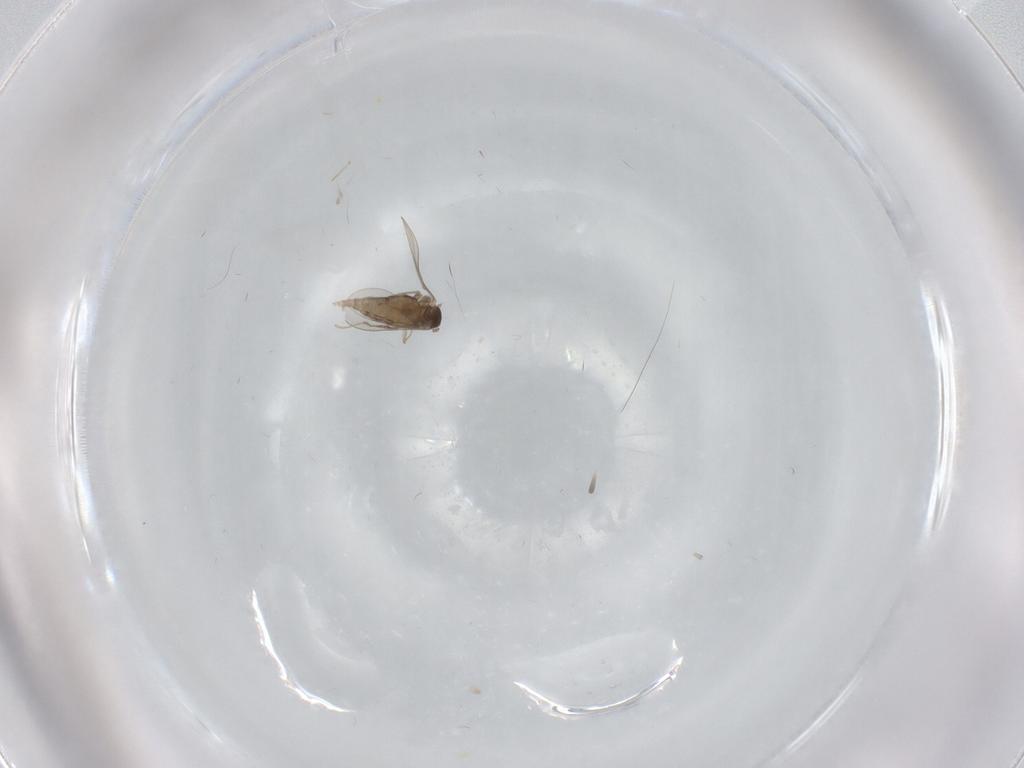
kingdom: Animalia
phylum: Arthropoda
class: Insecta
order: Diptera
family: Cecidomyiidae
